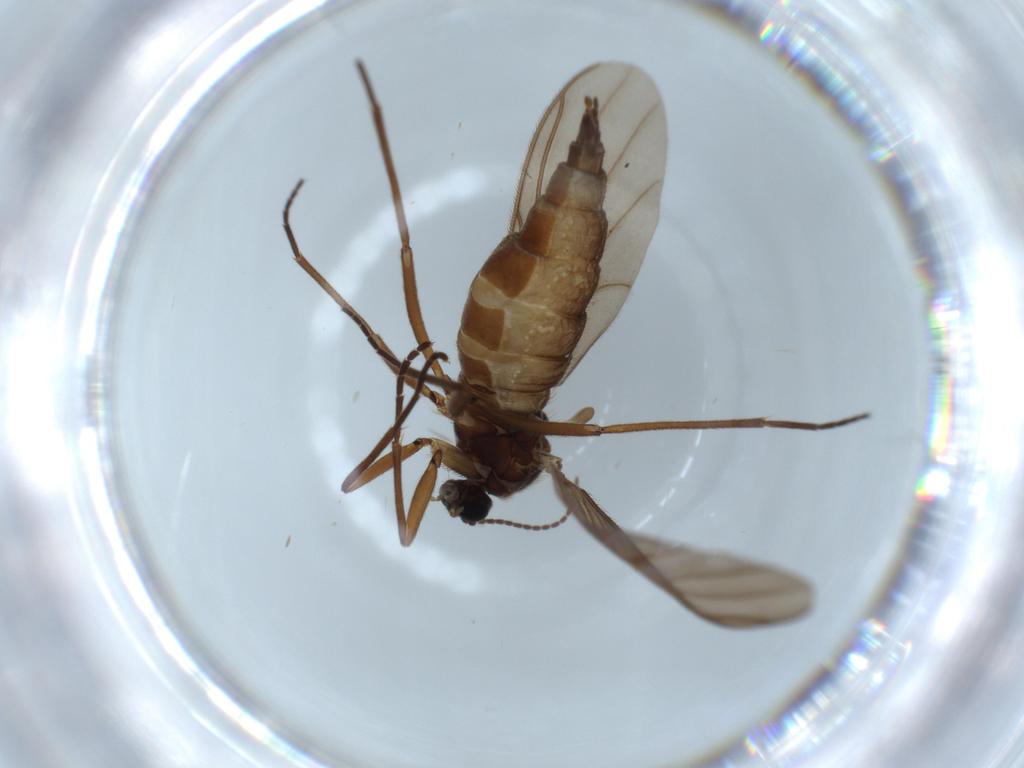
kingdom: Animalia
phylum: Arthropoda
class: Insecta
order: Diptera
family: Sciaridae
